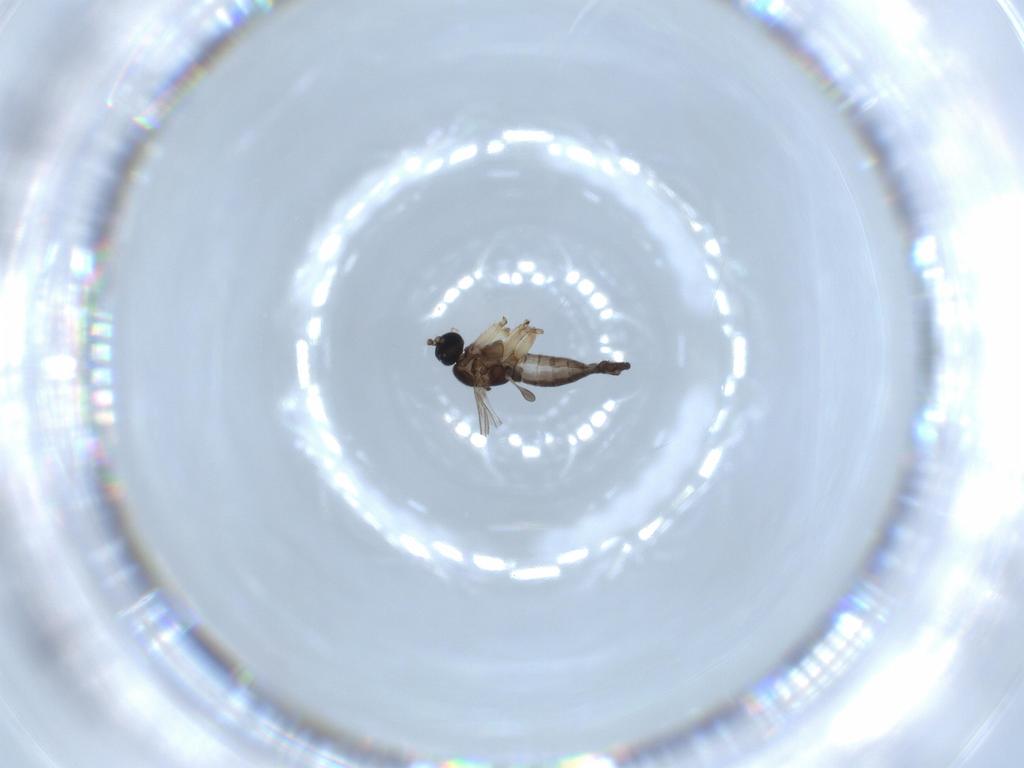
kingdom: Animalia
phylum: Arthropoda
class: Insecta
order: Diptera
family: Sciaridae
